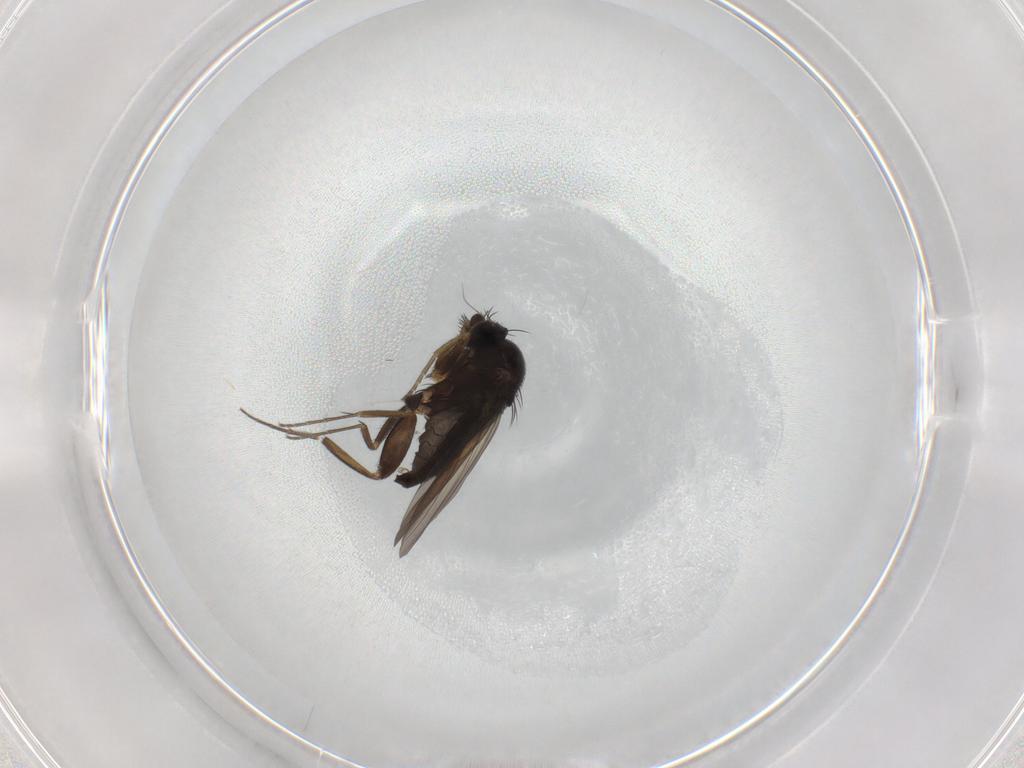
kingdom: Animalia
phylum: Arthropoda
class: Insecta
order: Diptera
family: Phoridae
